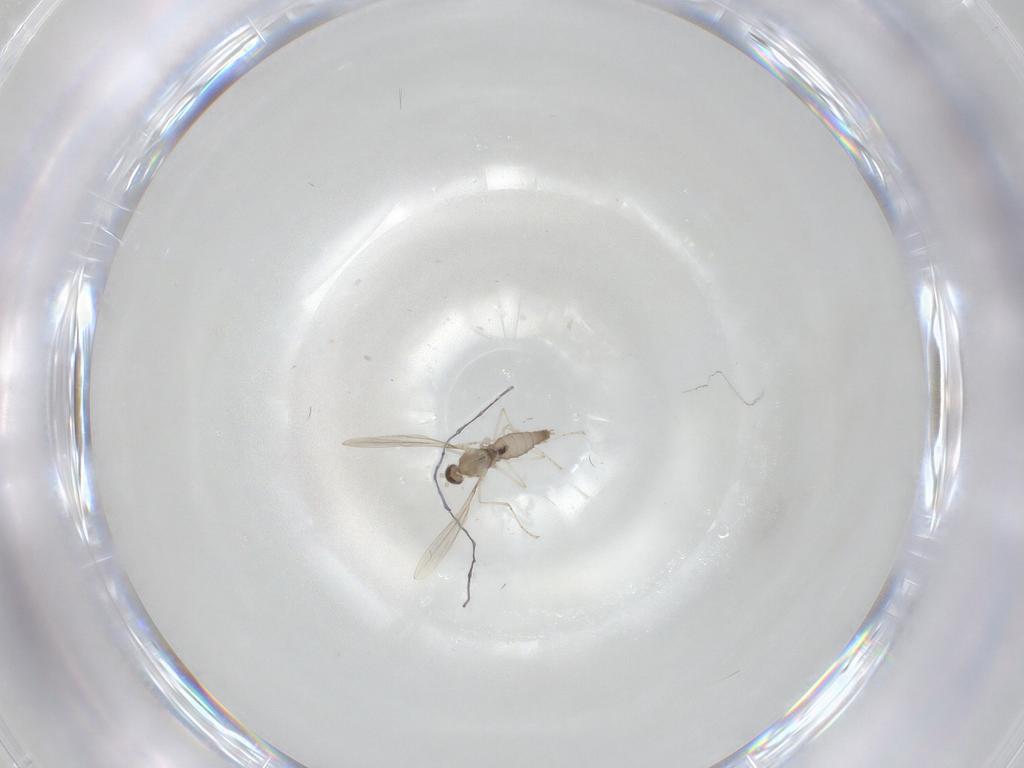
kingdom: Animalia
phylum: Arthropoda
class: Insecta
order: Diptera
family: Cecidomyiidae
